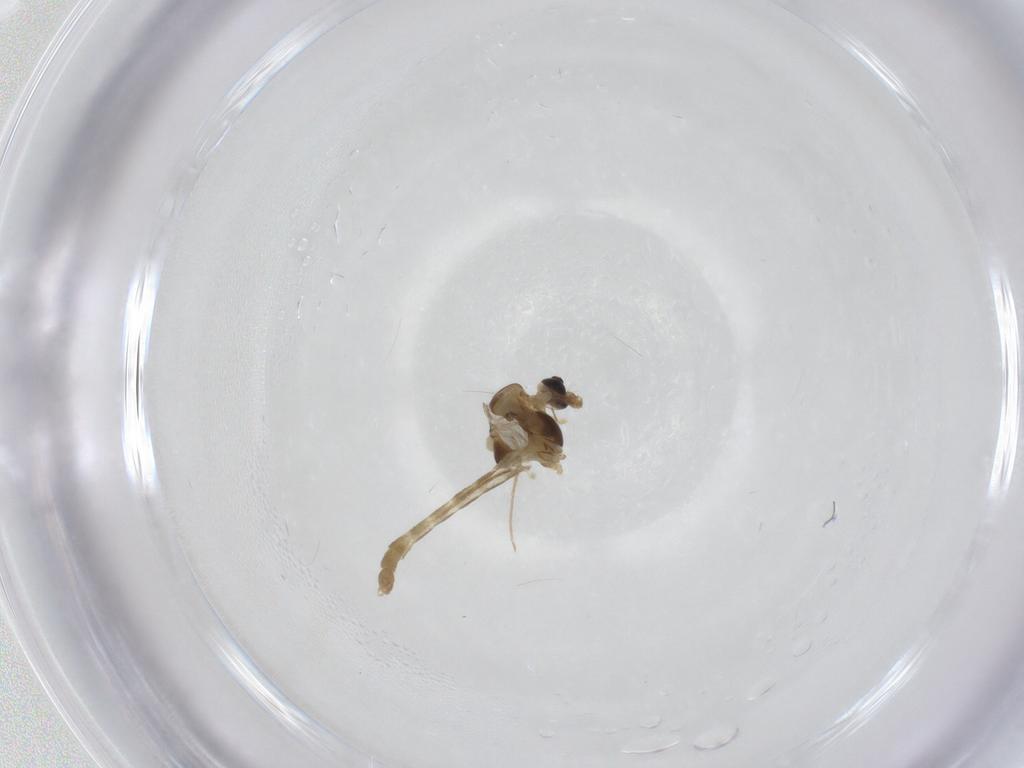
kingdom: Animalia
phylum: Arthropoda
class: Insecta
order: Diptera
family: Chironomidae
